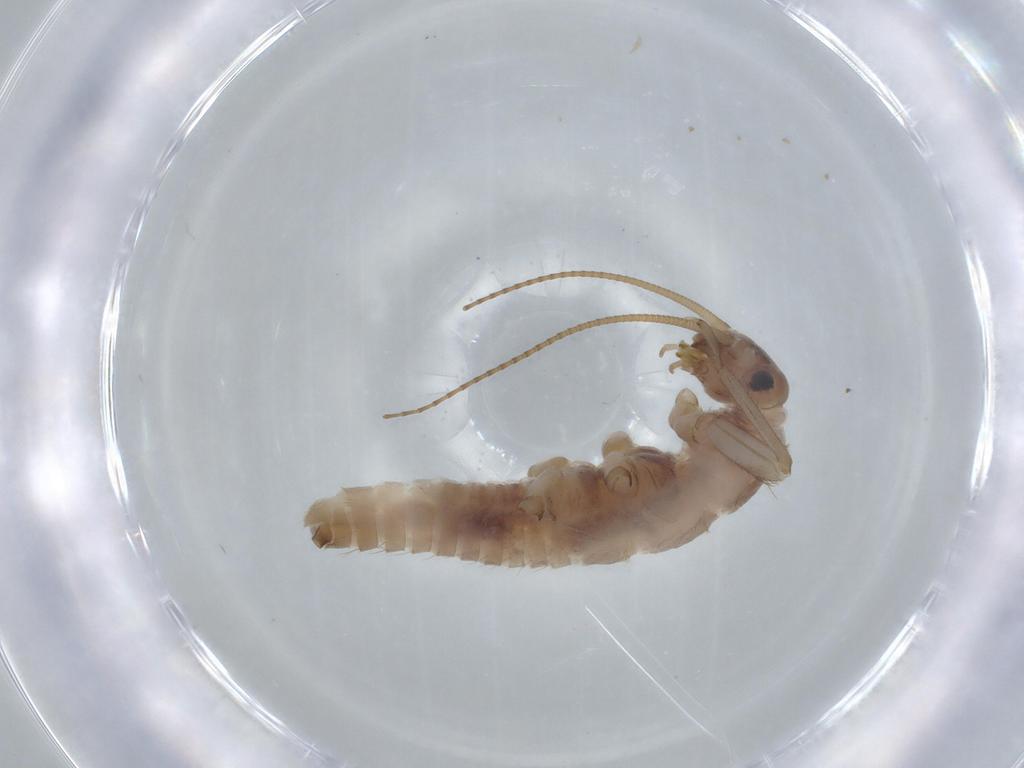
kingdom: Animalia
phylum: Arthropoda
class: Insecta
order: Plecoptera
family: Nemouridae
